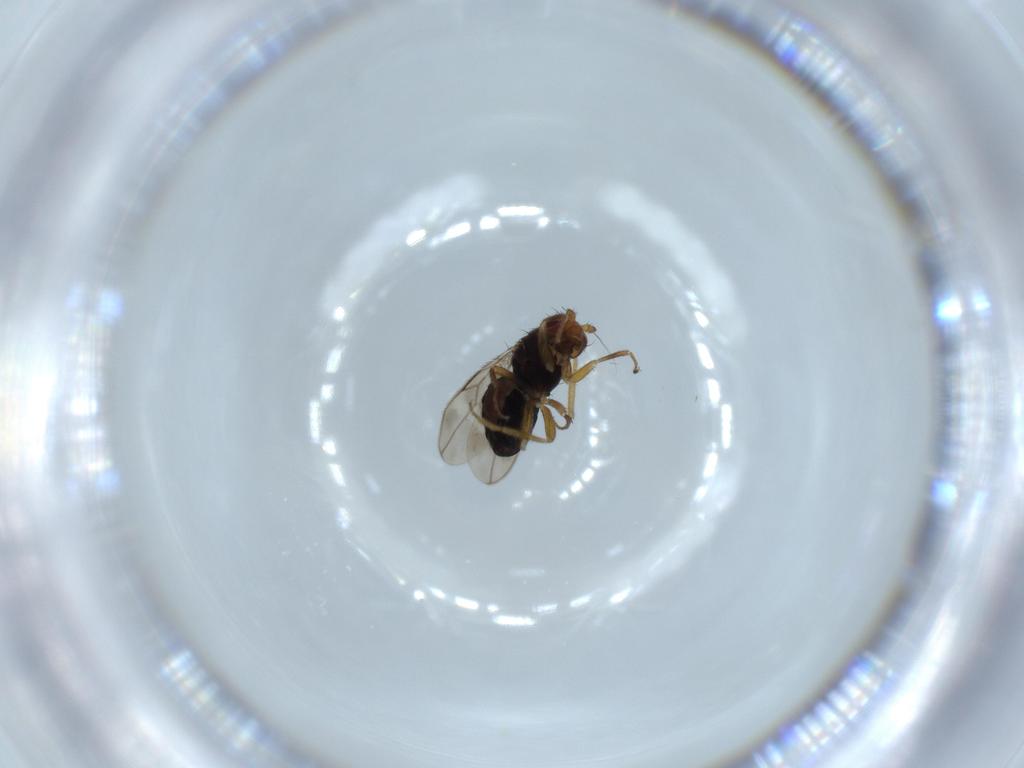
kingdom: Animalia
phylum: Arthropoda
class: Insecta
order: Diptera
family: Sphaeroceridae
